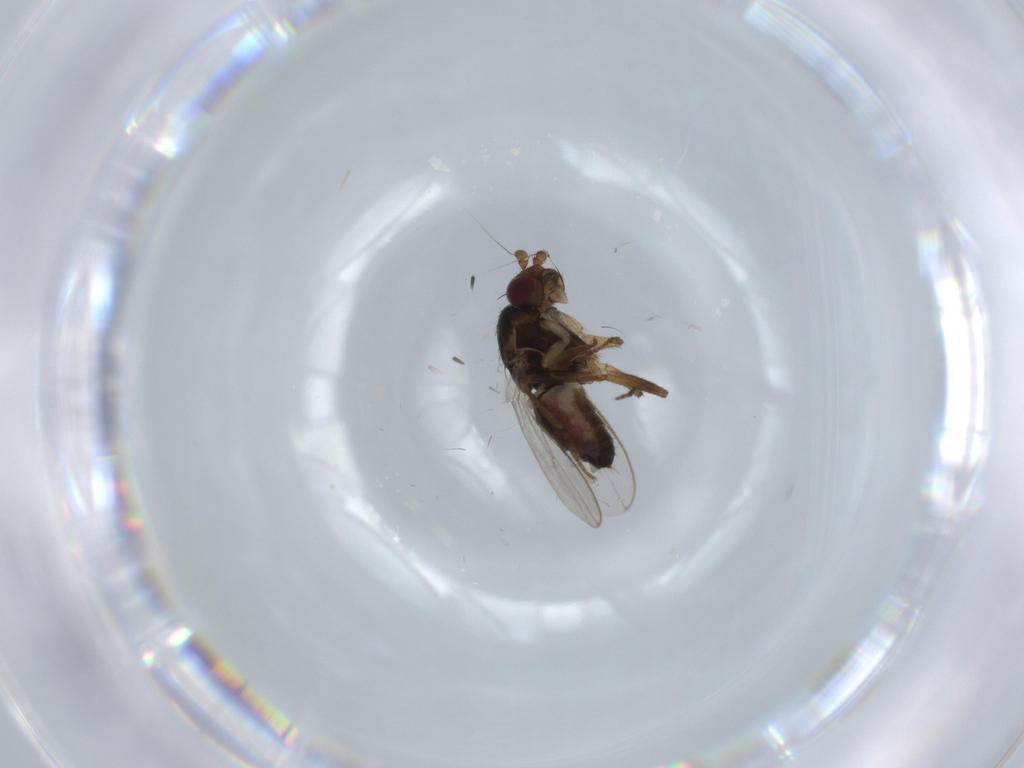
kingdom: Animalia
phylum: Arthropoda
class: Insecta
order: Diptera
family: Sphaeroceridae
